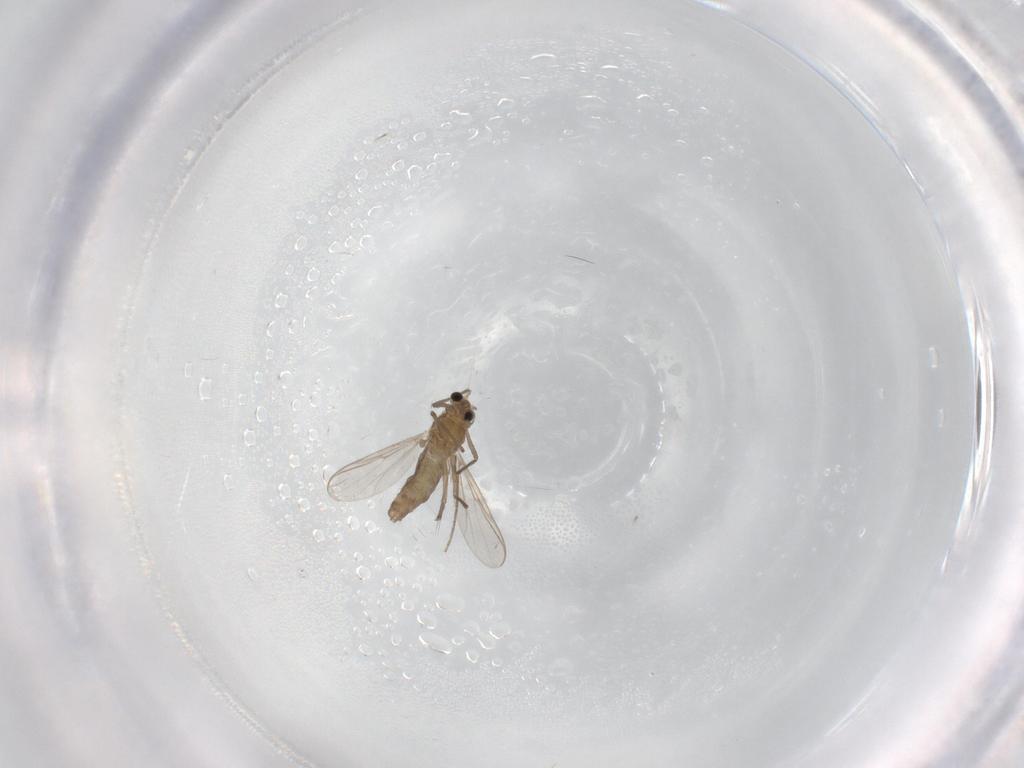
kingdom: Animalia
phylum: Arthropoda
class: Insecta
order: Diptera
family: Chironomidae
